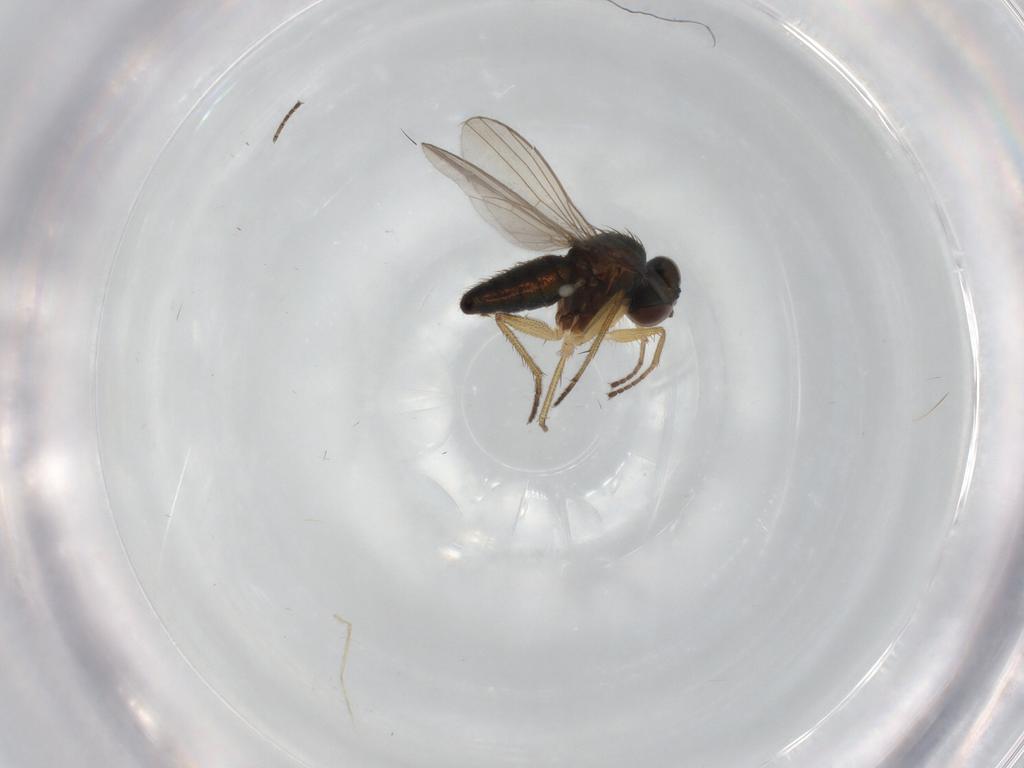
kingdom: Animalia
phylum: Arthropoda
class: Insecta
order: Diptera
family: Dolichopodidae
